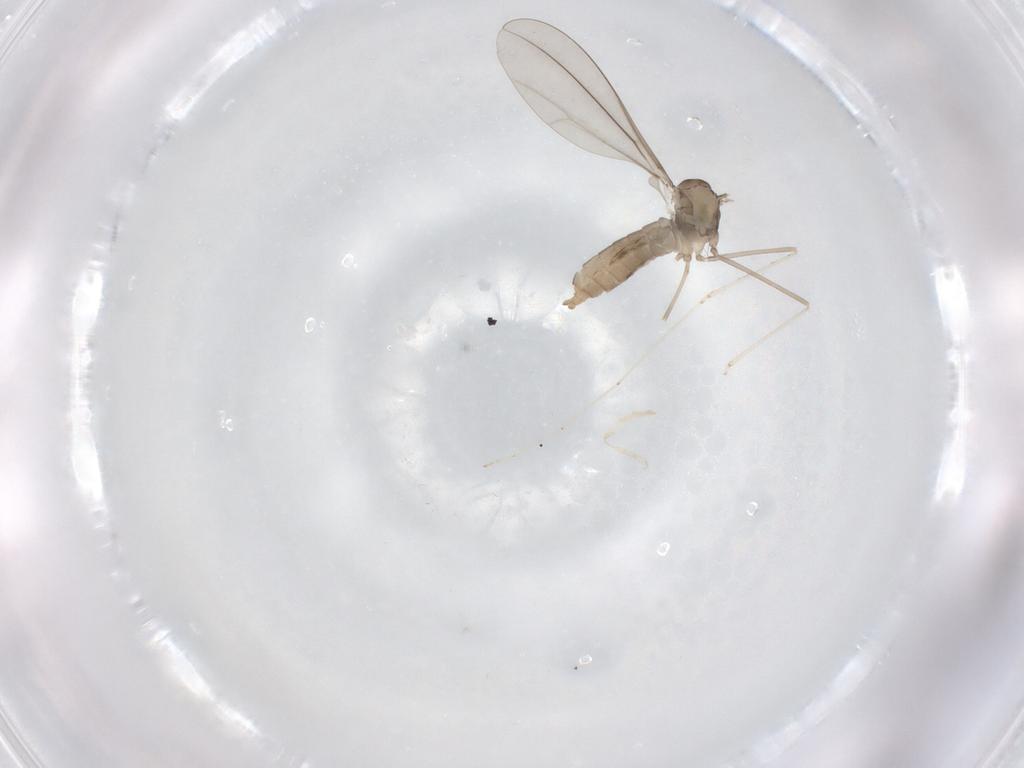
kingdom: Animalia
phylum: Arthropoda
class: Insecta
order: Diptera
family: Cecidomyiidae
